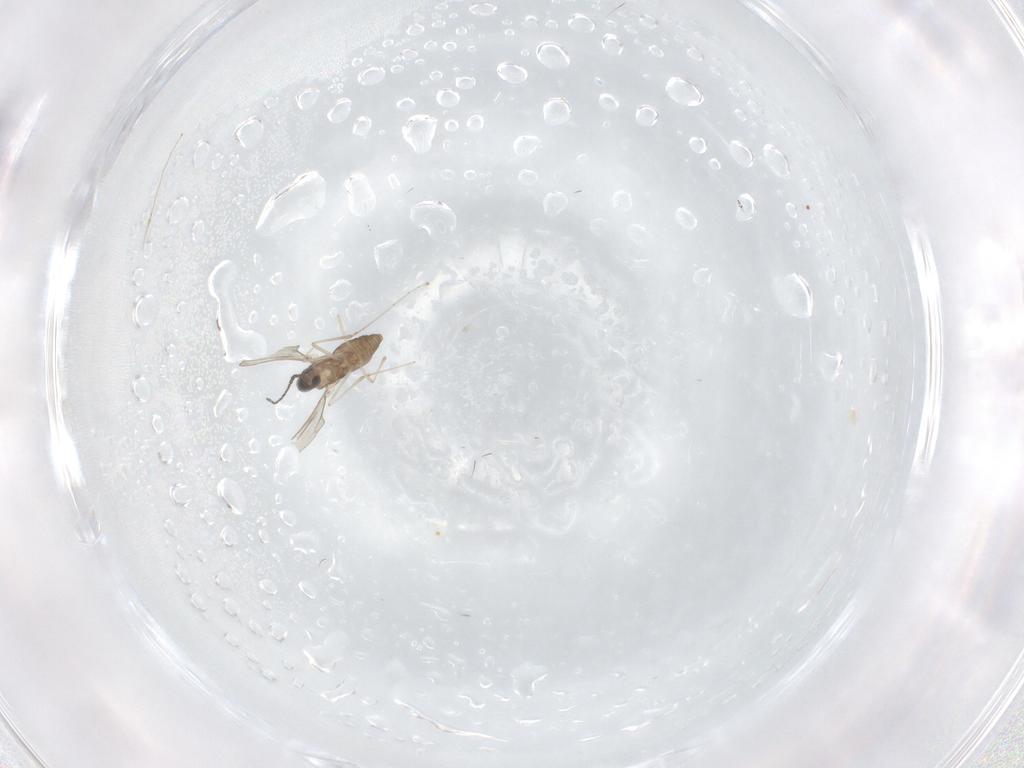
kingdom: Animalia
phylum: Arthropoda
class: Insecta
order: Diptera
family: Cecidomyiidae
